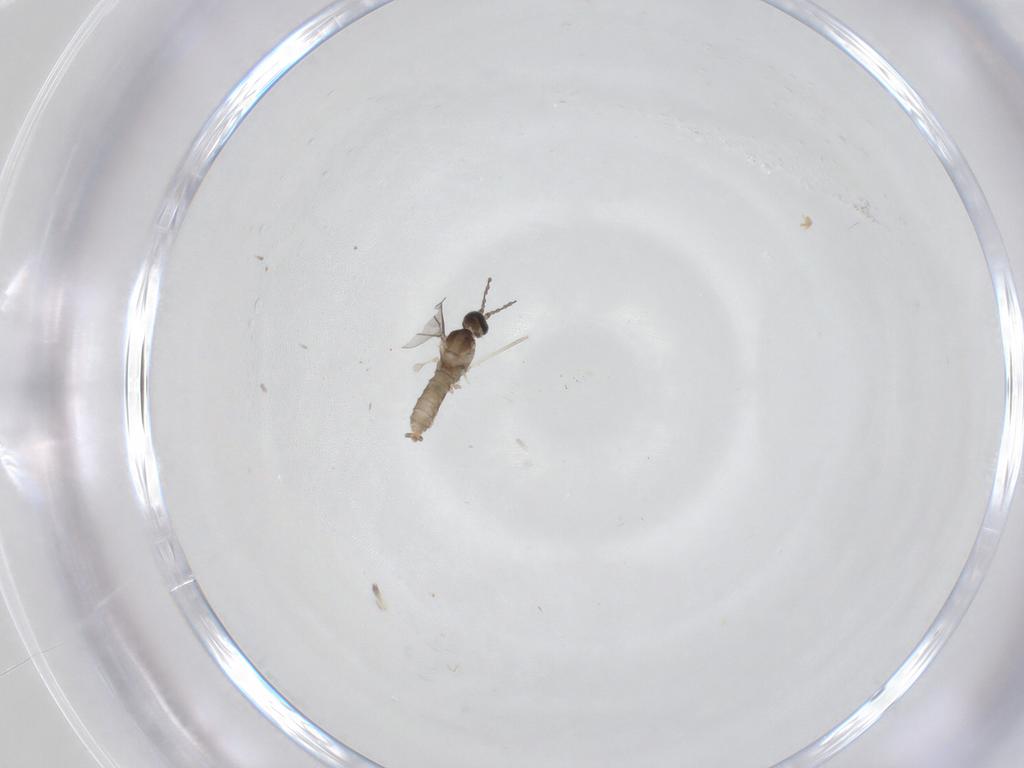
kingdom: Animalia
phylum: Arthropoda
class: Insecta
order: Diptera
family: Cecidomyiidae
